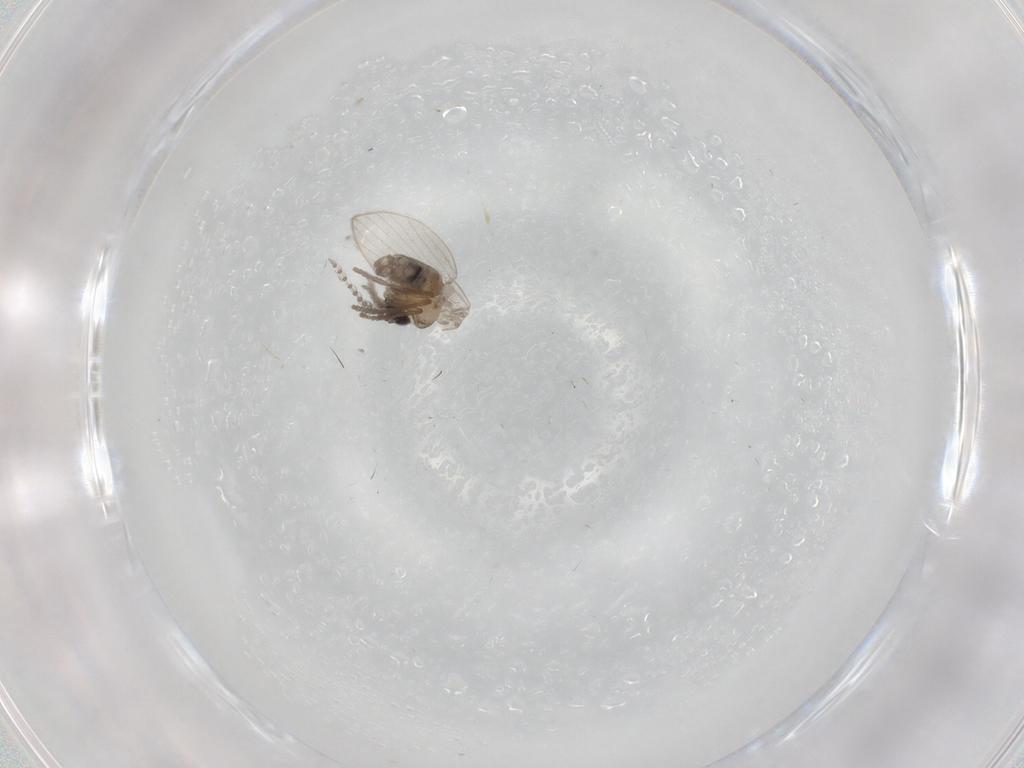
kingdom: Animalia
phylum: Arthropoda
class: Insecta
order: Diptera
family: Psychodidae
